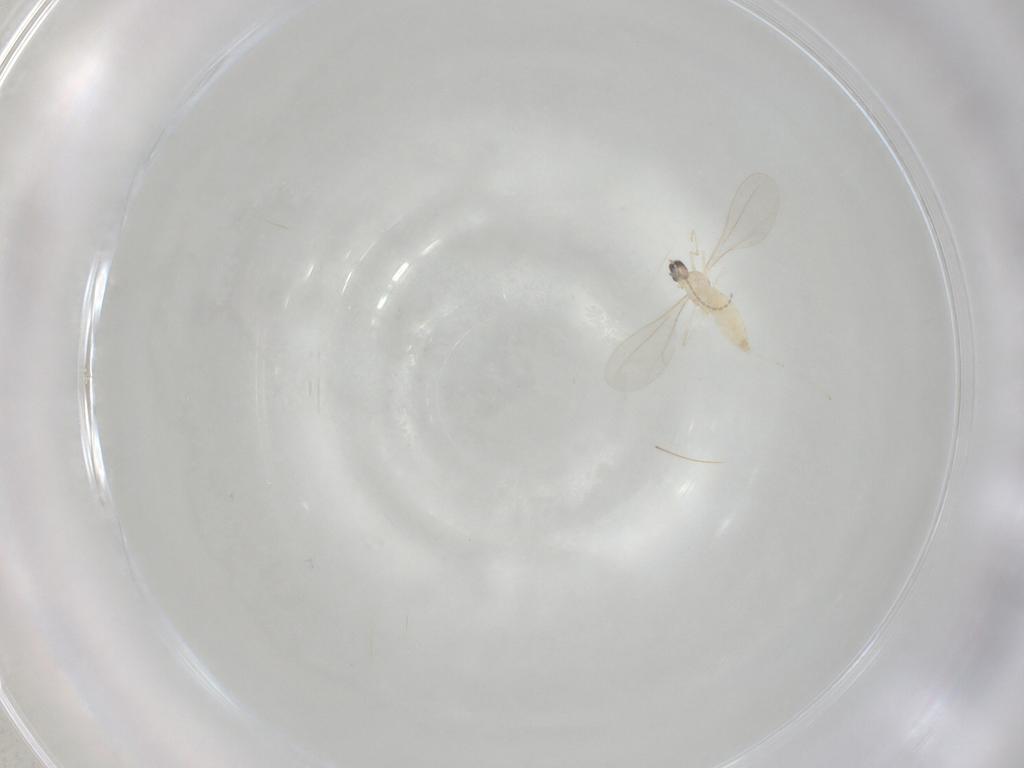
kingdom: Animalia
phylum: Arthropoda
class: Insecta
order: Diptera
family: Cecidomyiidae
